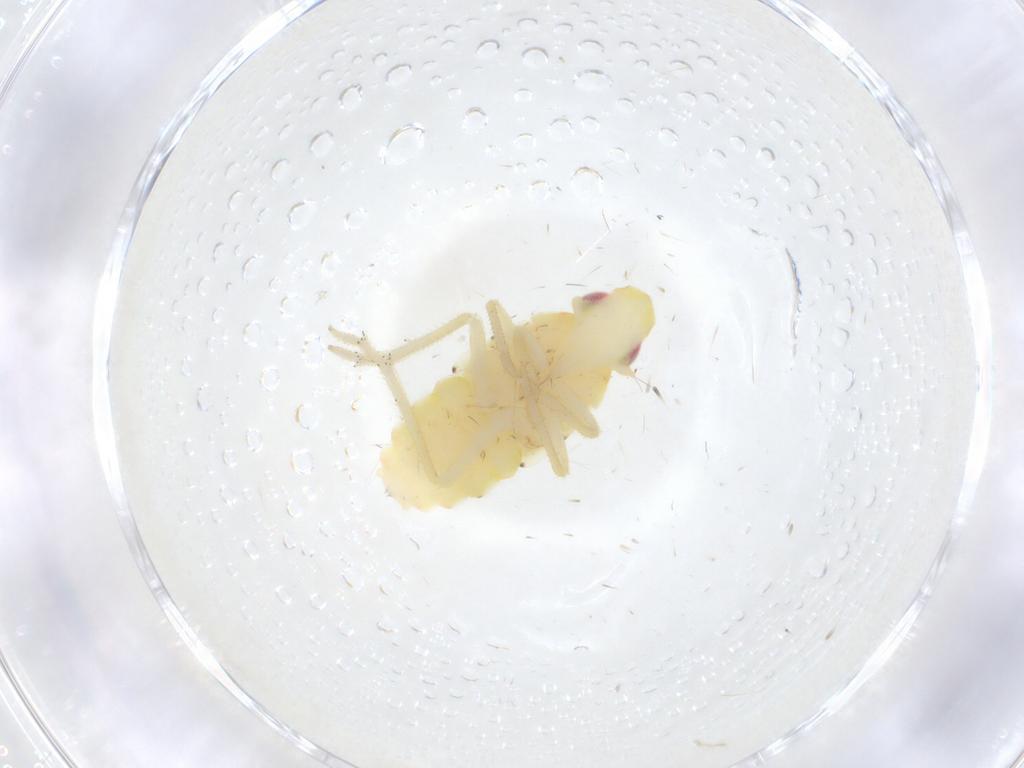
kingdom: Animalia
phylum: Arthropoda
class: Insecta
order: Hemiptera
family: Tropiduchidae
